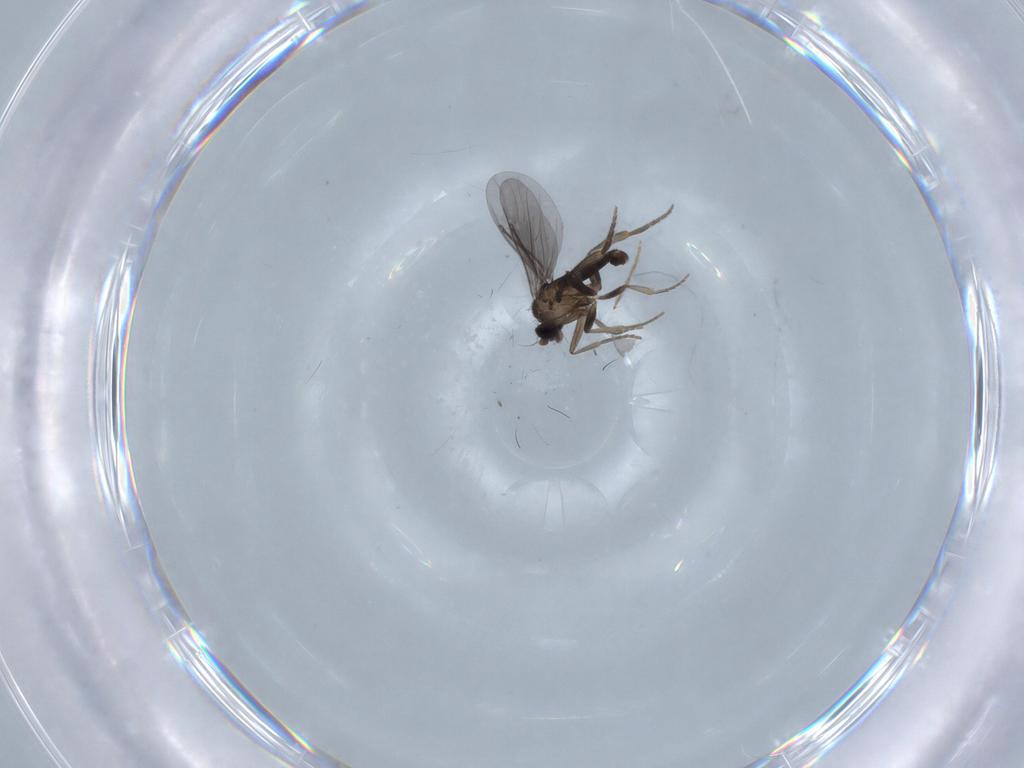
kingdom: Animalia
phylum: Arthropoda
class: Insecta
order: Diptera
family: Phoridae
